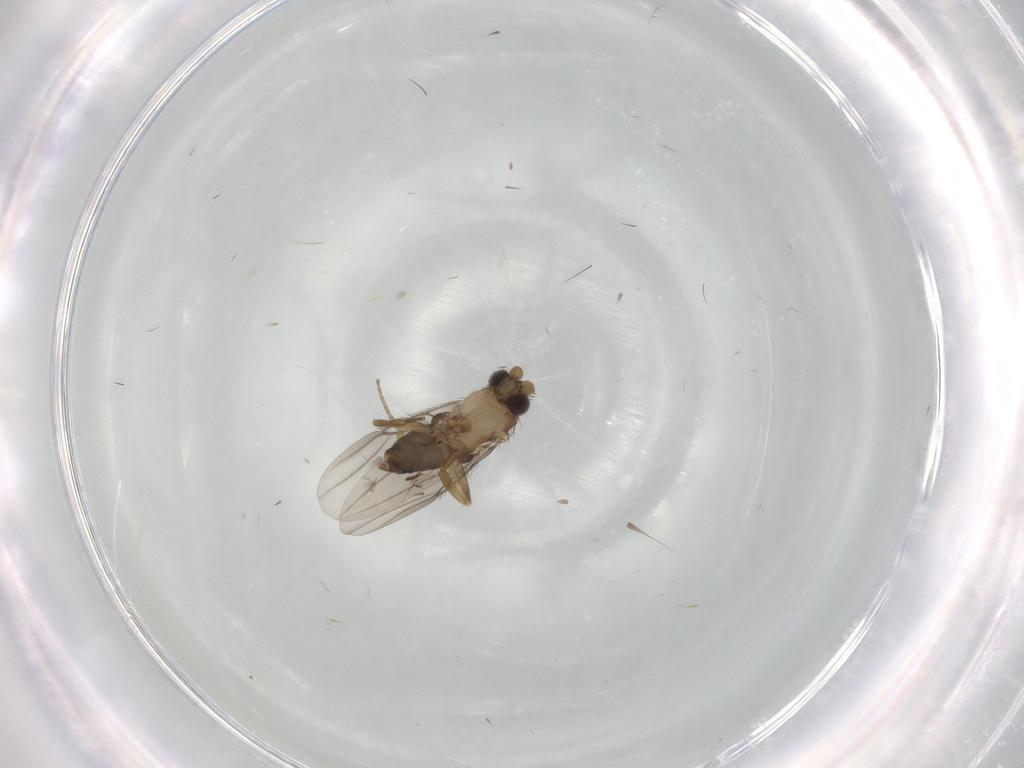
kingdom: Animalia
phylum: Arthropoda
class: Insecta
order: Diptera
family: Phoridae
